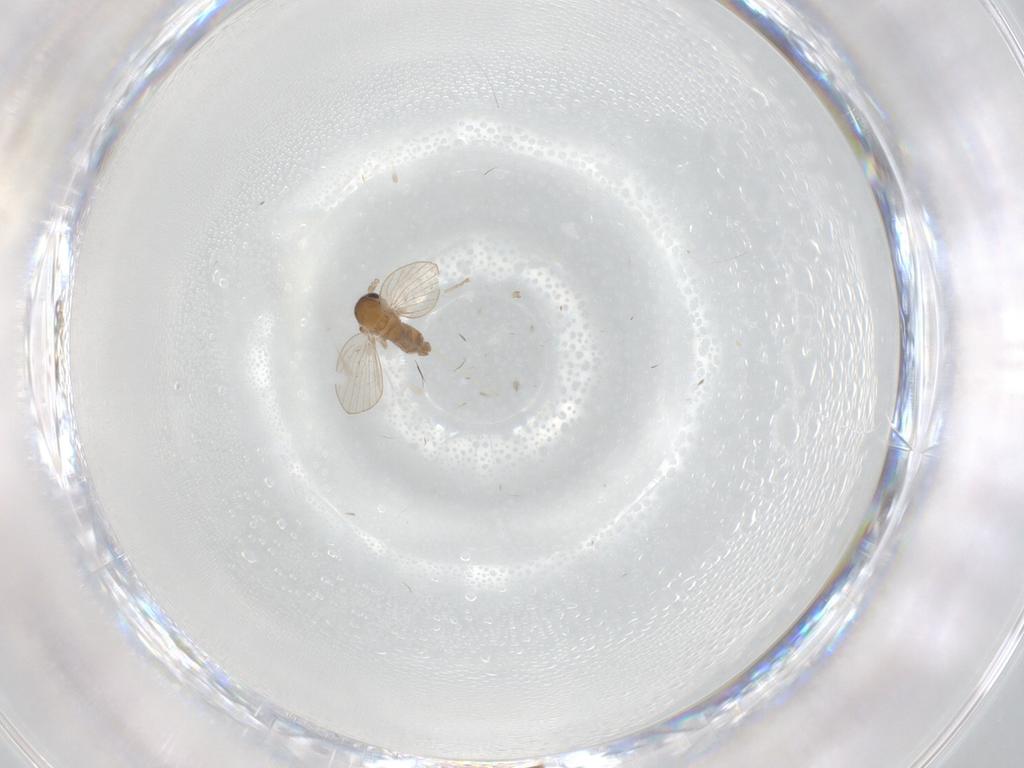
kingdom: Animalia
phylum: Arthropoda
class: Insecta
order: Diptera
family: Psychodidae
